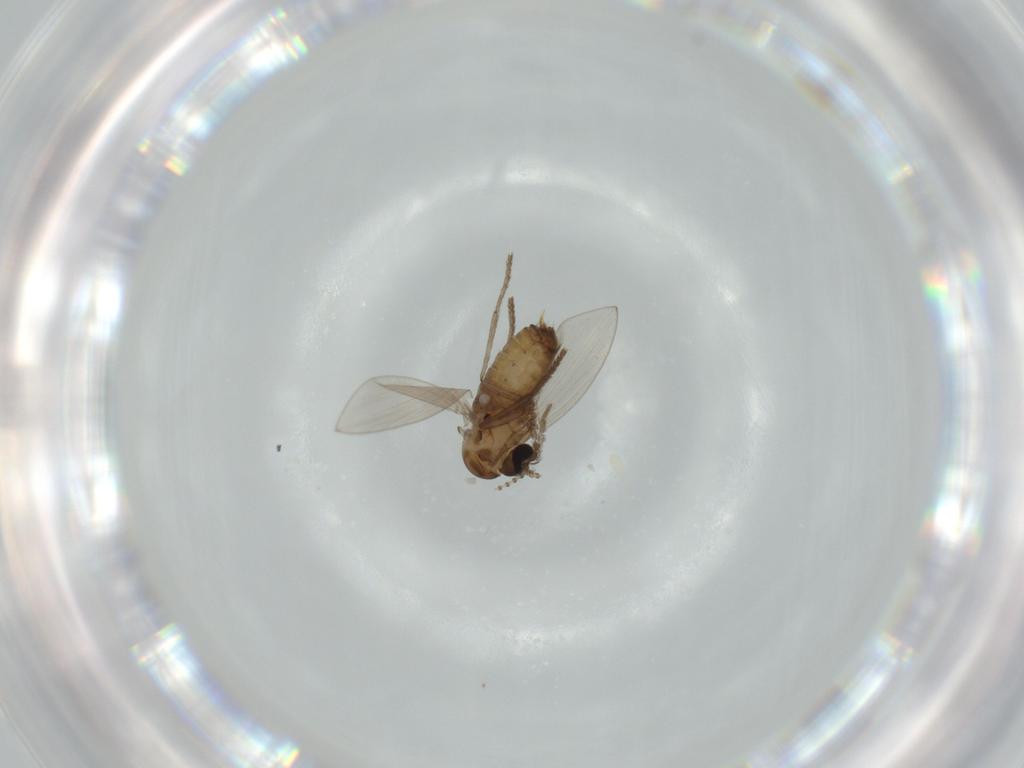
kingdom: Animalia
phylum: Arthropoda
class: Insecta
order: Diptera
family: Psychodidae
